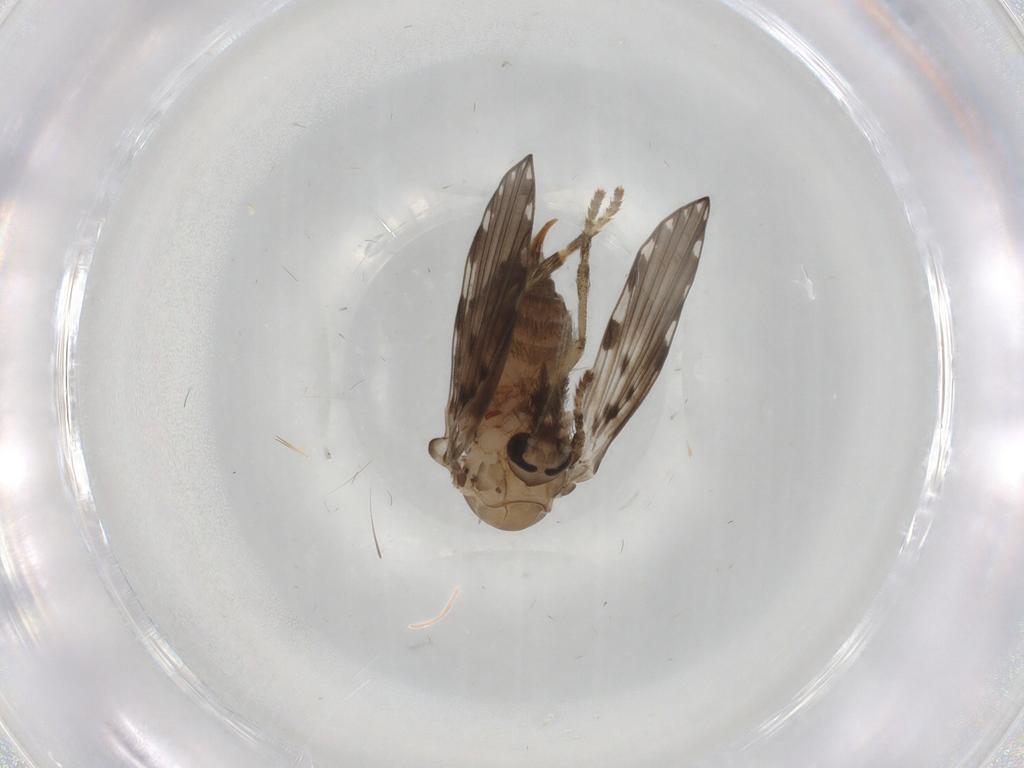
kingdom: Animalia
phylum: Arthropoda
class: Insecta
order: Diptera
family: Psychodidae
